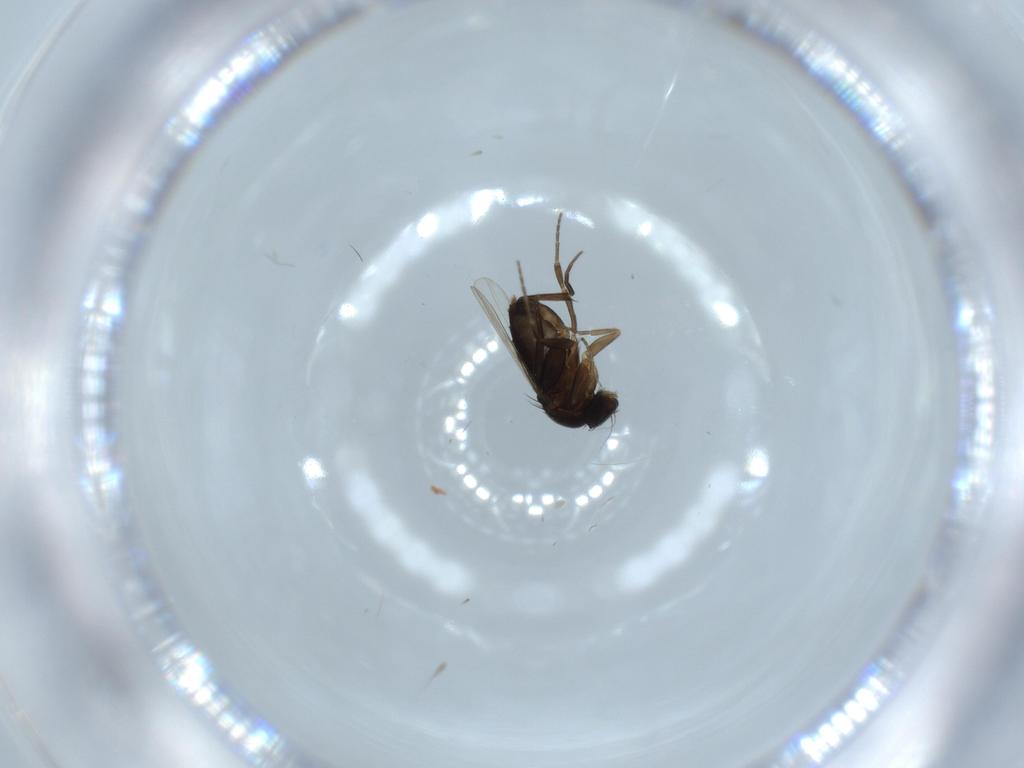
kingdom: Animalia
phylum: Arthropoda
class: Insecta
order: Diptera
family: Phoridae
